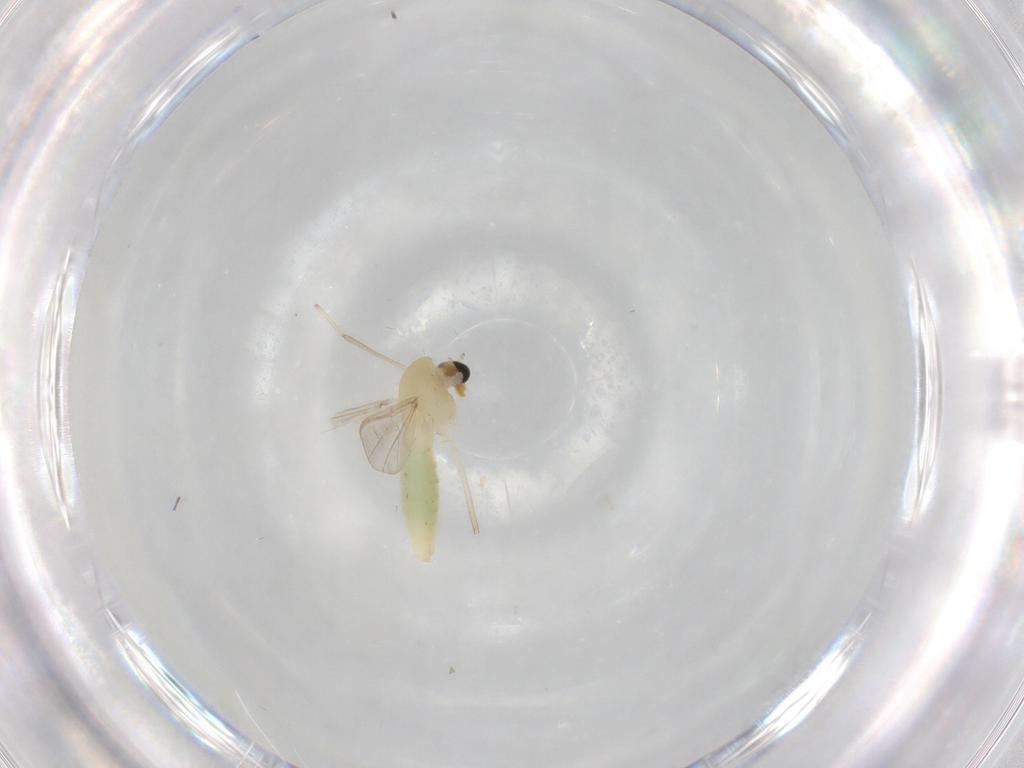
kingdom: Animalia
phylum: Arthropoda
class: Insecta
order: Diptera
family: Chironomidae
